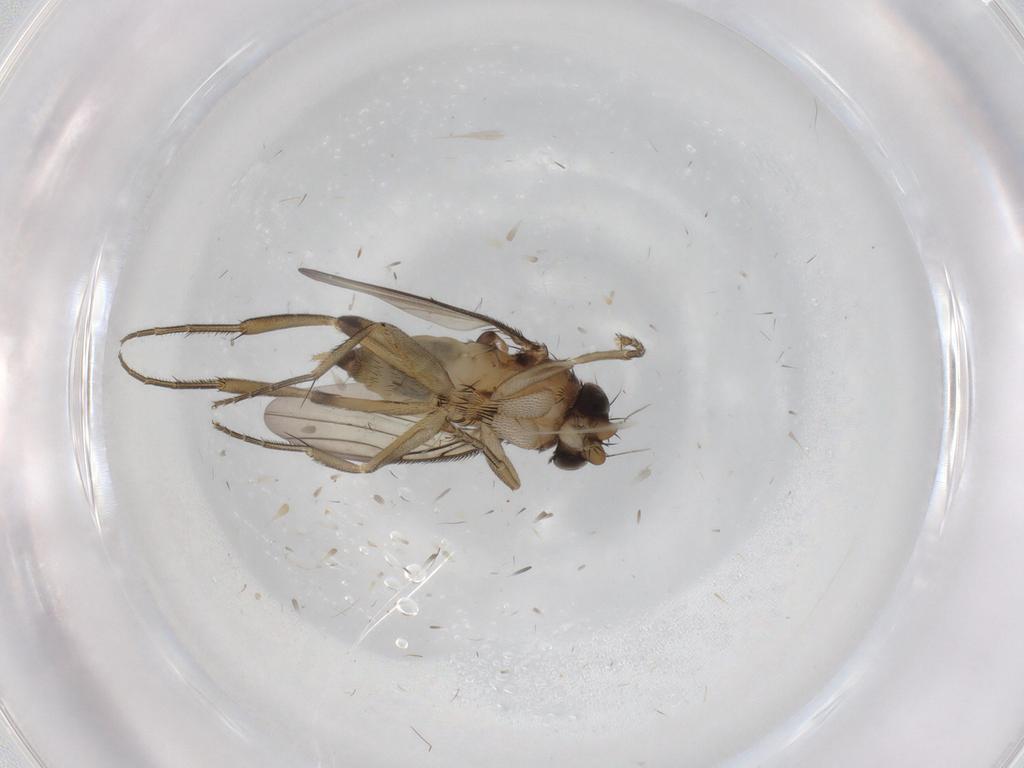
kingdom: Animalia
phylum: Arthropoda
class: Insecta
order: Diptera
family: Phoridae
